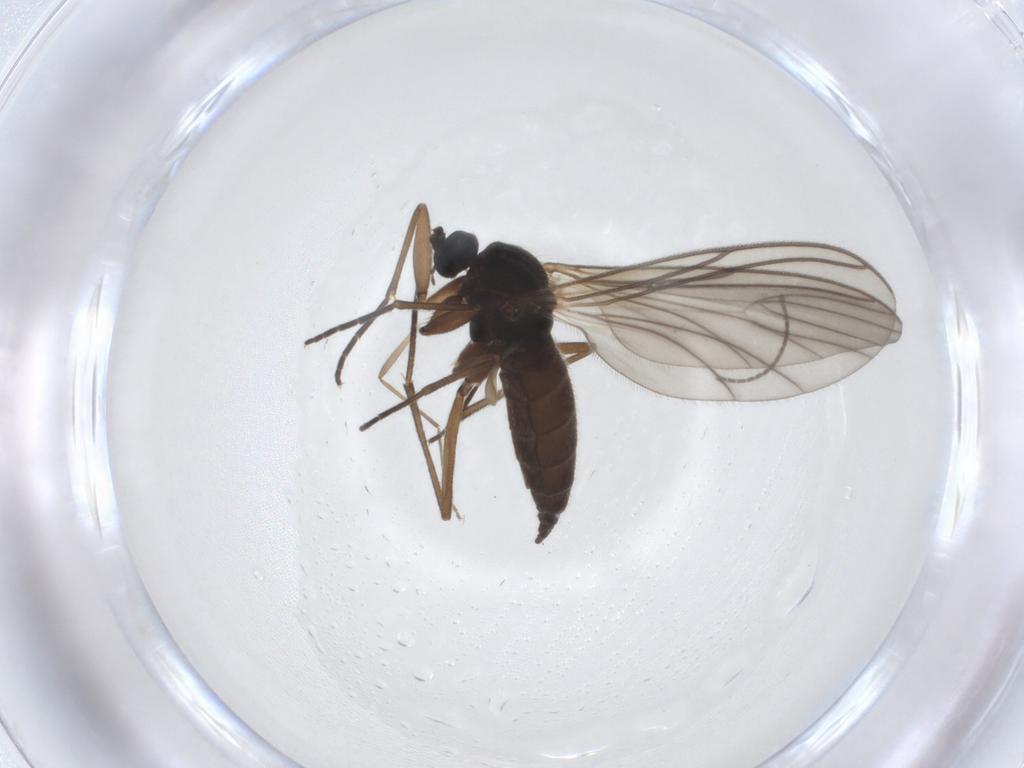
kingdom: Animalia
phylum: Arthropoda
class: Insecta
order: Diptera
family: Sciaridae
